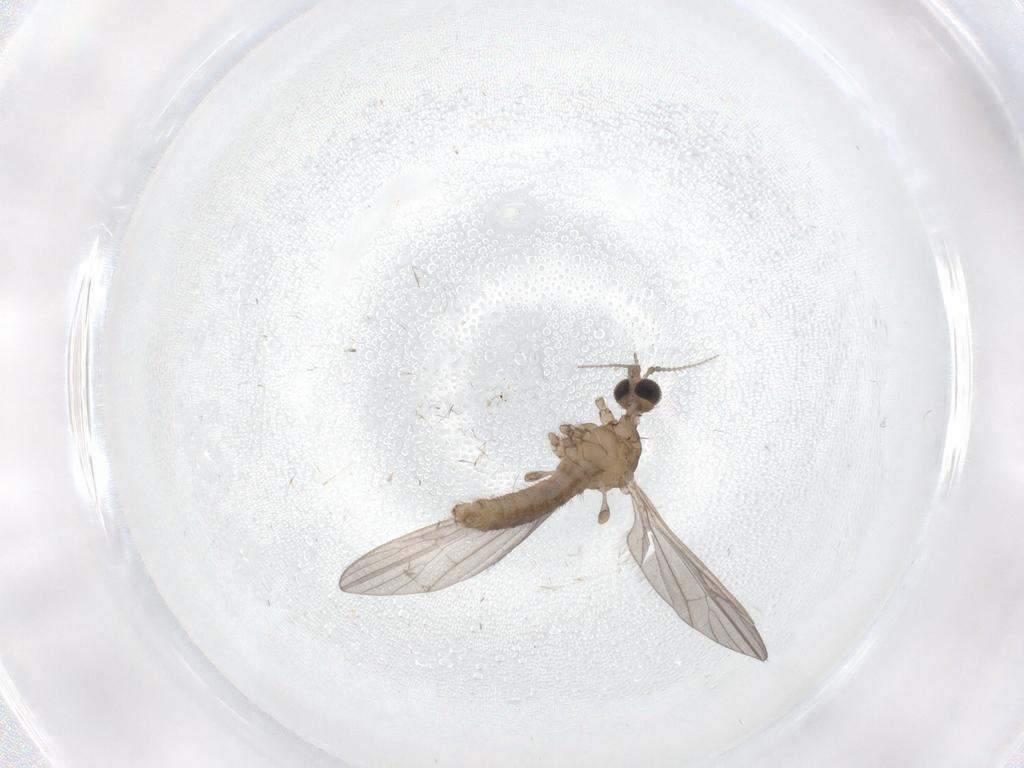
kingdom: Animalia
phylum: Arthropoda
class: Insecta
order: Diptera
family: Limoniidae
